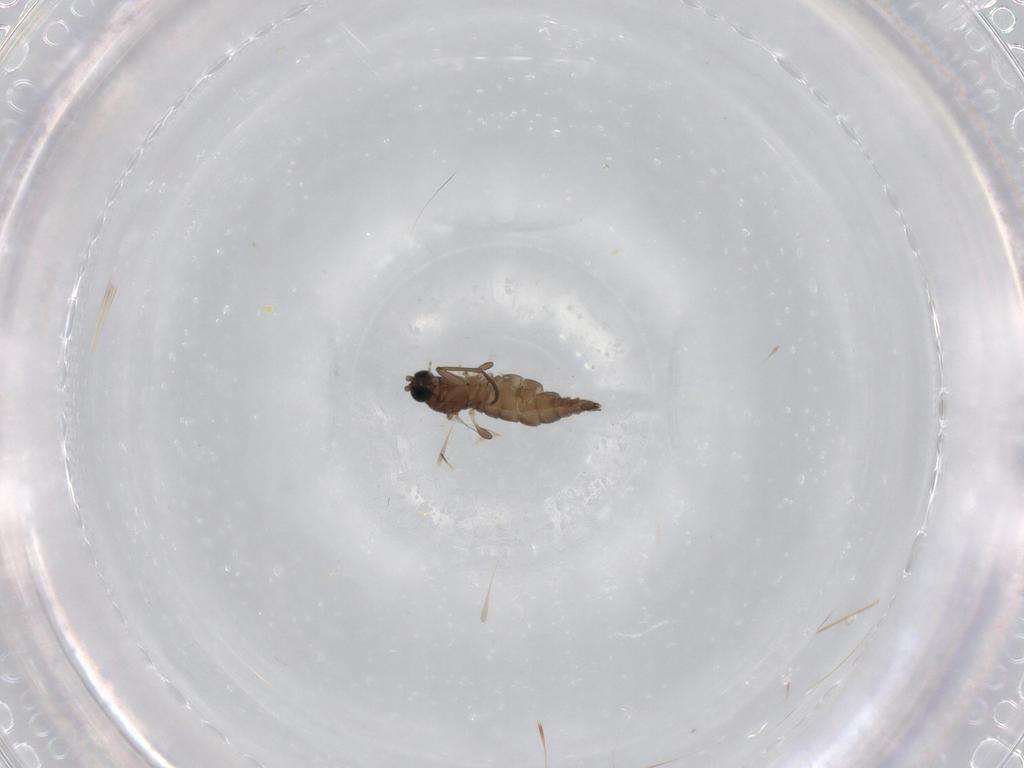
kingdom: Animalia
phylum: Arthropoda
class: Insecta
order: Diptera
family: Sciaridae
